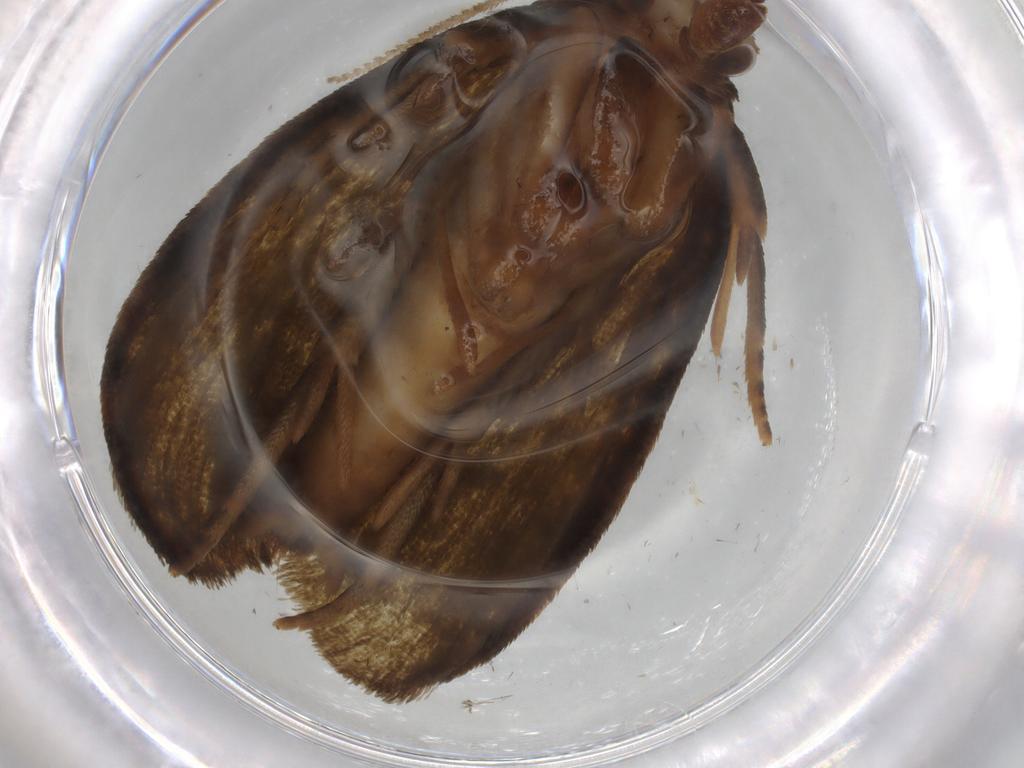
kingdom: Animalia
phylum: Arthropoda
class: Insecta
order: Lepidoptera
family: Geometridae
